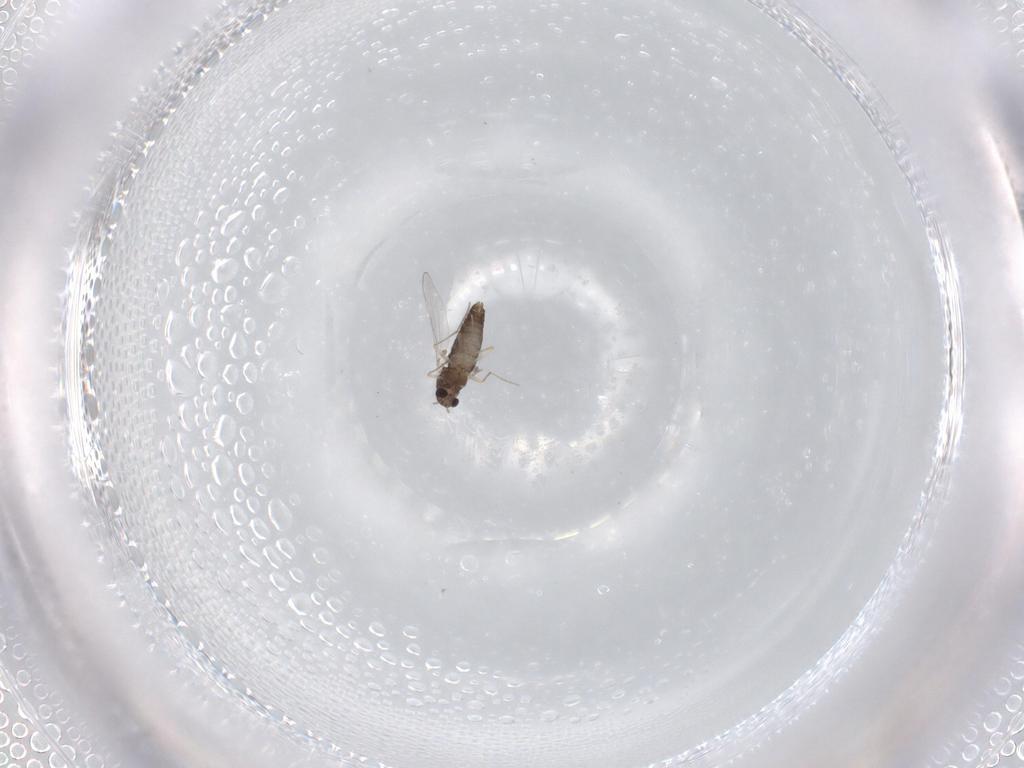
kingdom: Animalia
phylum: Arthropoda
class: Insecta
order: Diptera
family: Chironomidae
